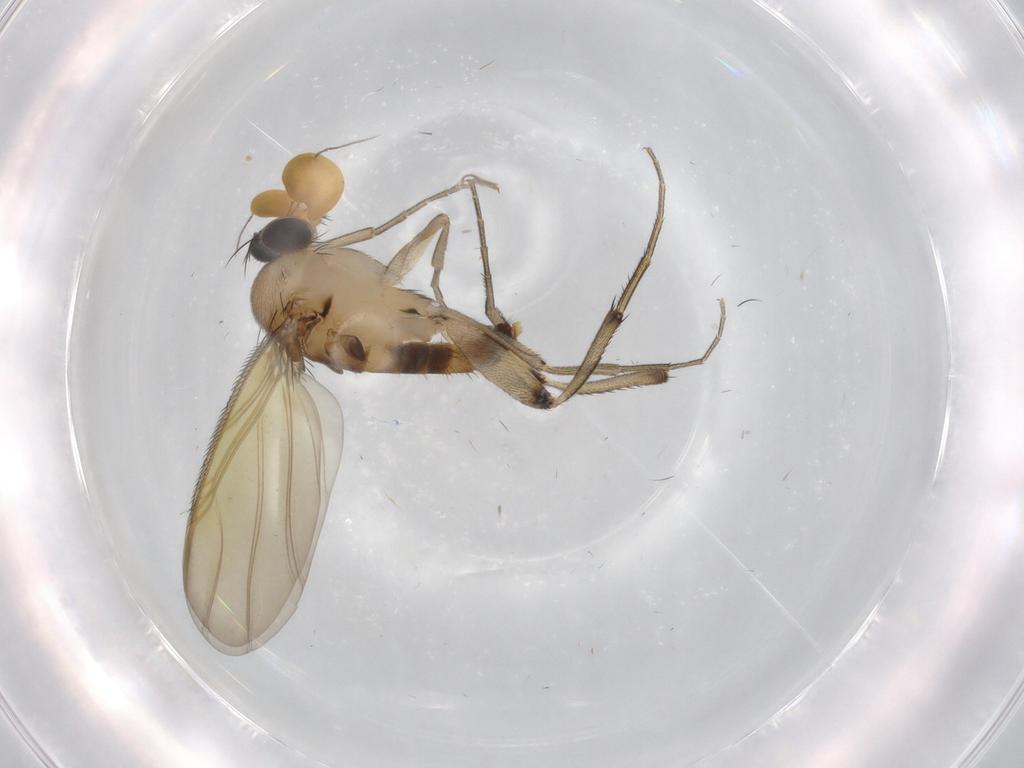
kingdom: Animalia
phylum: Arthropoda
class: Insecta
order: Diptera
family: Phoridae
